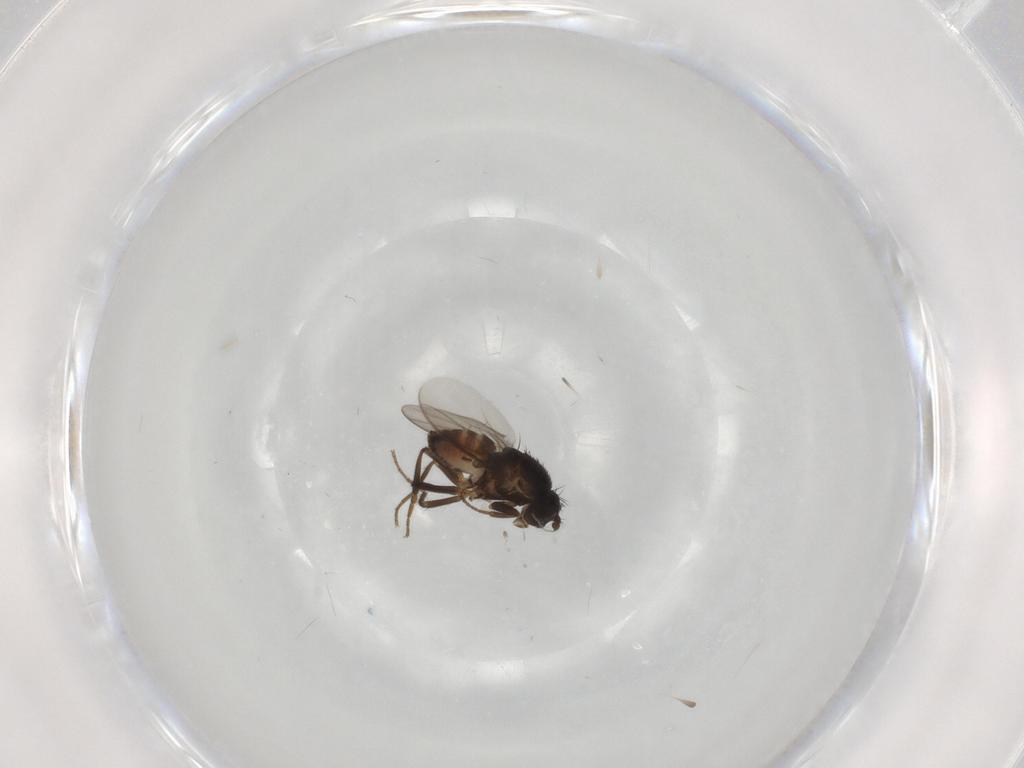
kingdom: Animalia
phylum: Arthropoda
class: Insecta
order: Diptera
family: Sphaeroceridae
